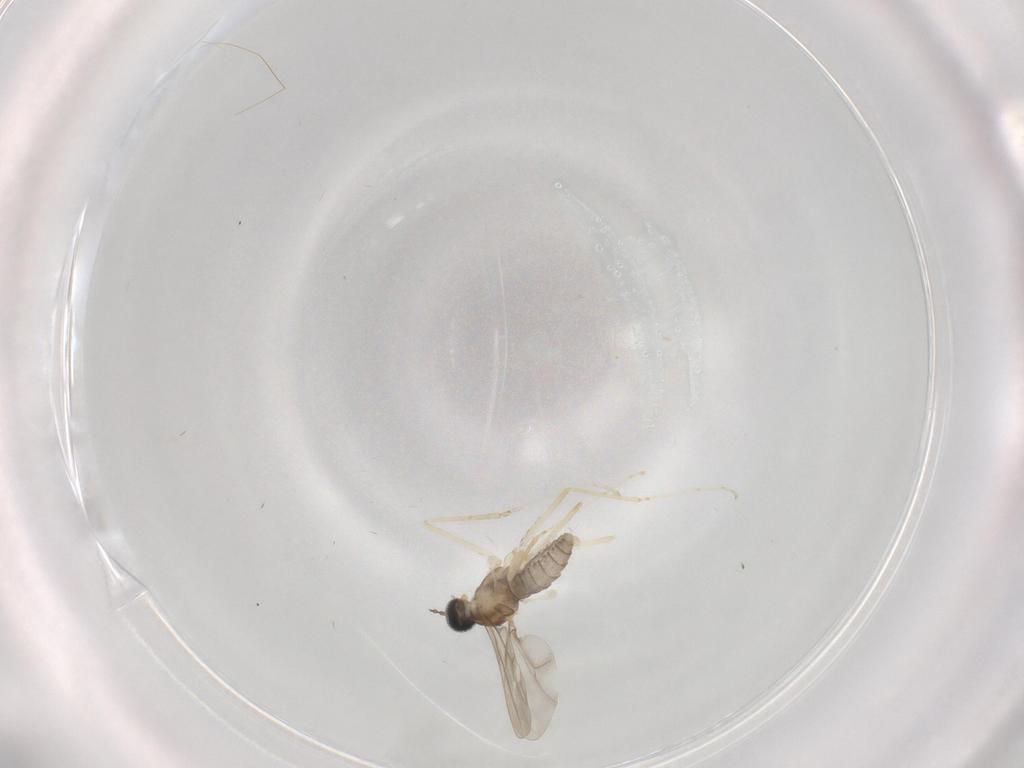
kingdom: Animalia
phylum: Arthropoda
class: Insecta
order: Diptera
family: Cecidomyiidae
